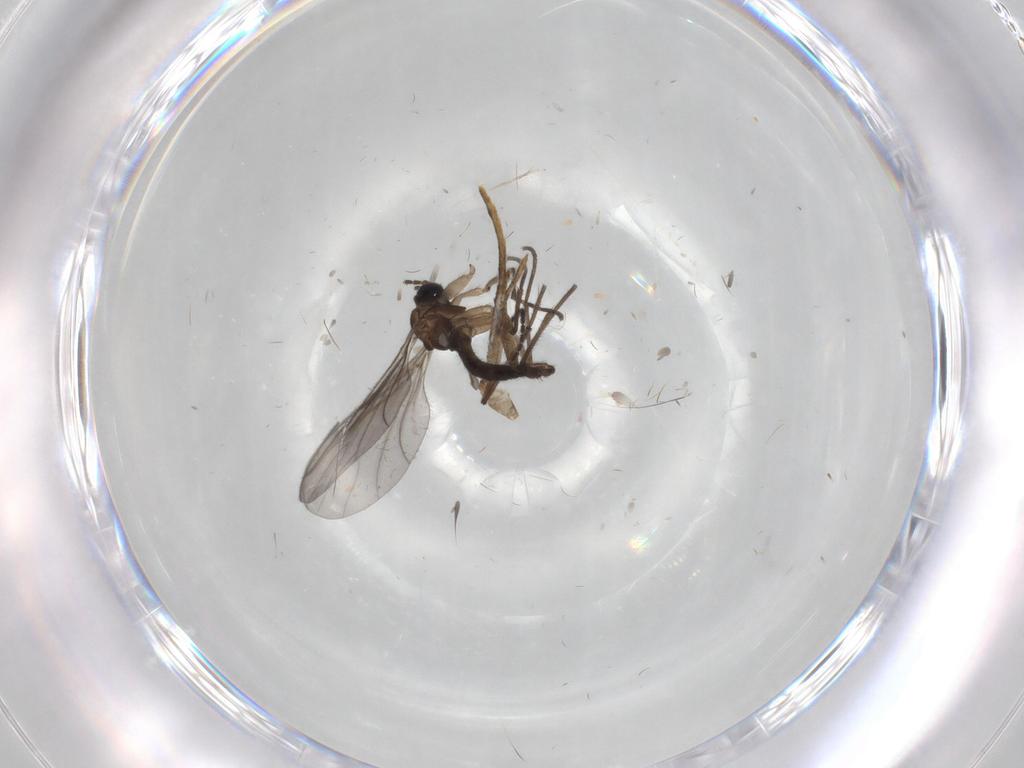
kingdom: Animalia
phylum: Arthropoda
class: Insecta
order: Diptera
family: Sciaridae
